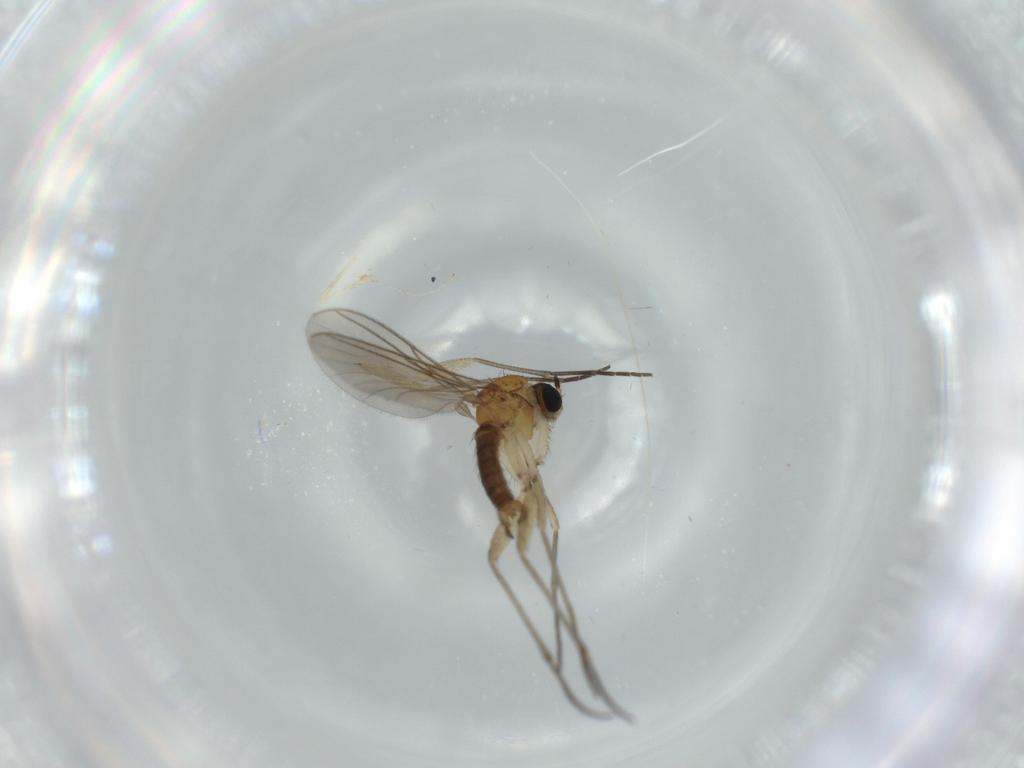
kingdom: Animalia
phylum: Arthropoda
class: Insecta
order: Diptera
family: Sciaridae
